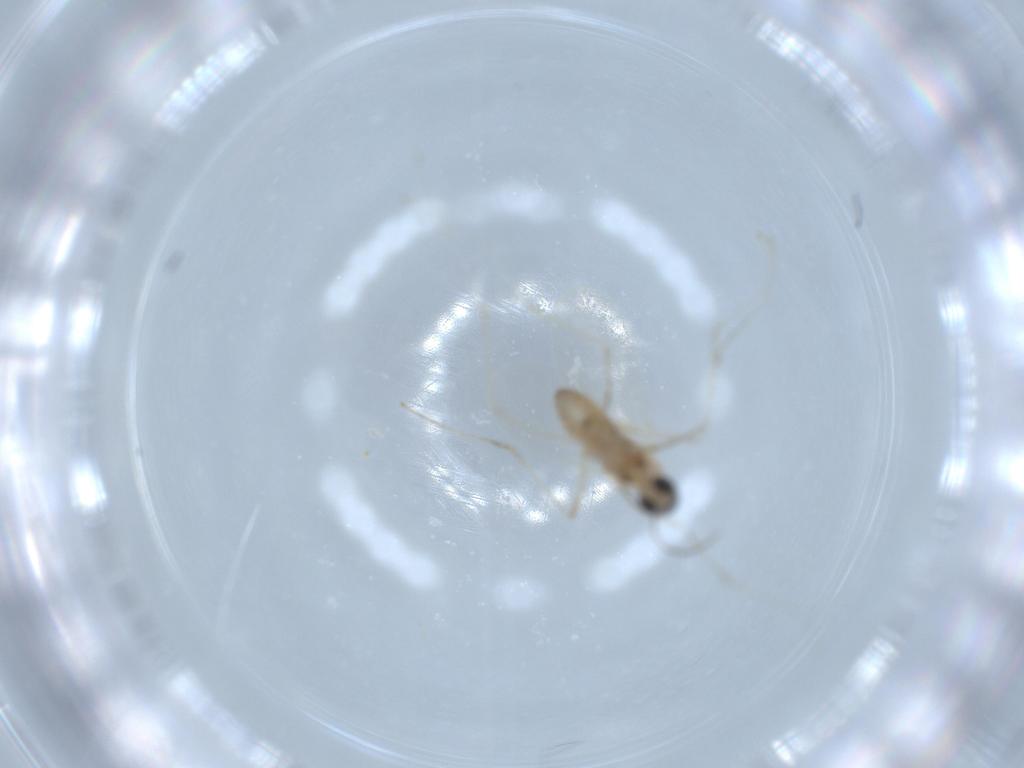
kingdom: Animalia
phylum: Arthropoda
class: Insecta
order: Diptera
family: Cecidomyiidae
